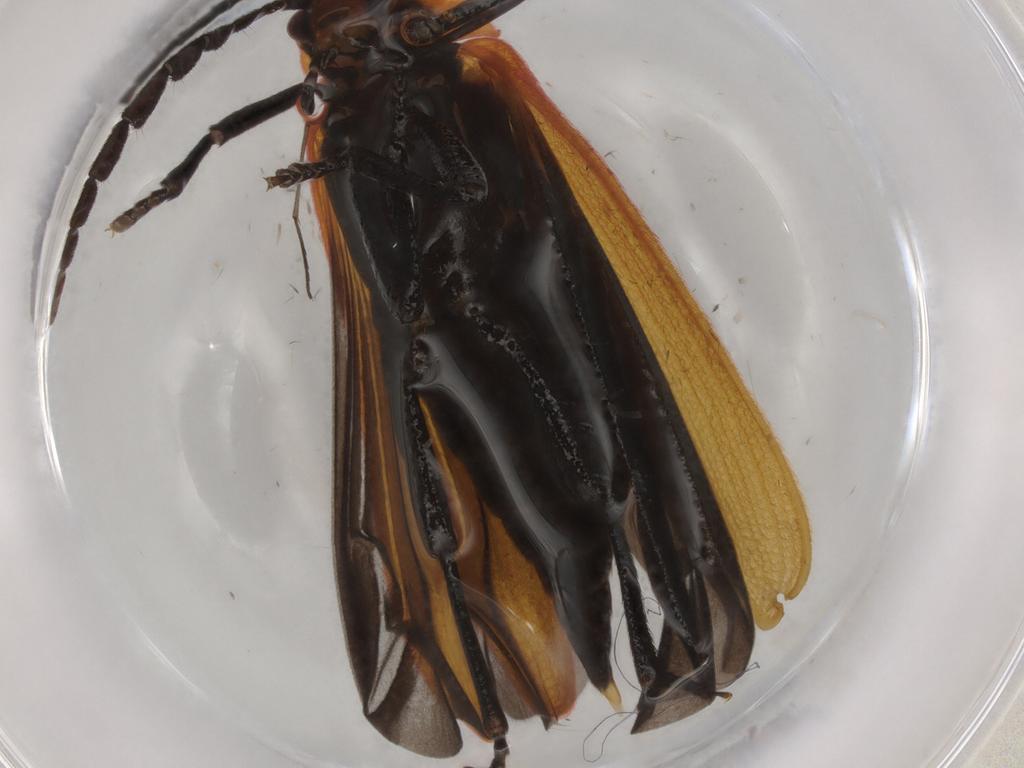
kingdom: Animalia
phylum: Arthropoda
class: Insecta
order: Coleoptera
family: Lycidae
